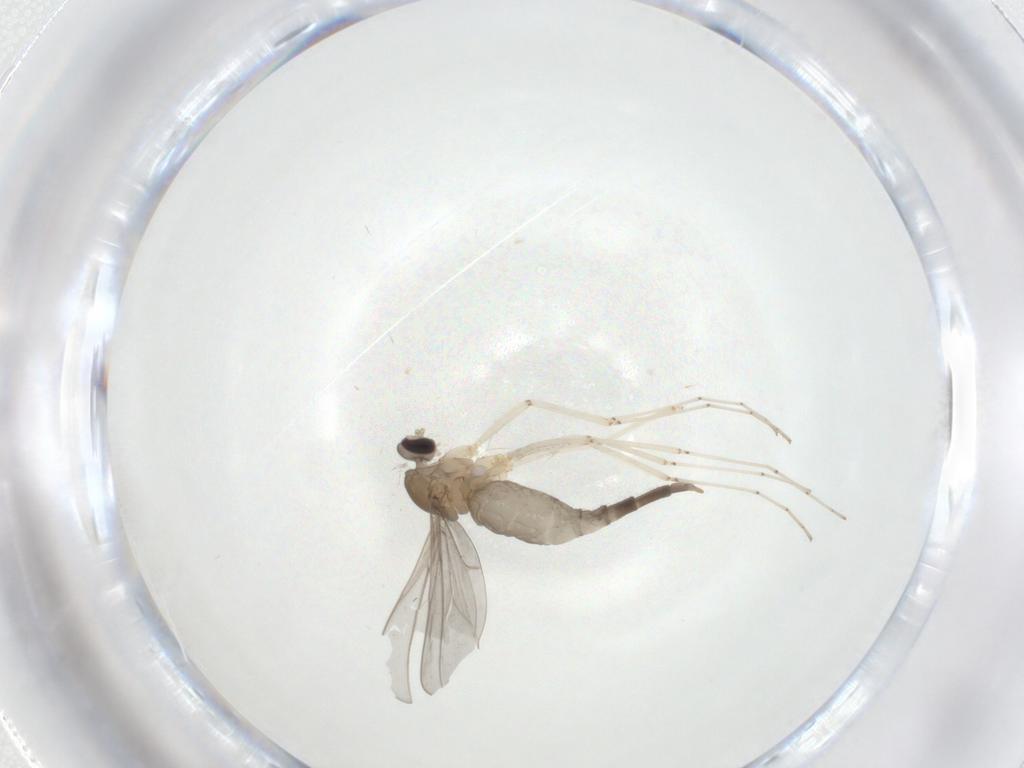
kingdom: Animalia
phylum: Arthropoda
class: Insecta
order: Diptera
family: Cecidomyiidae
